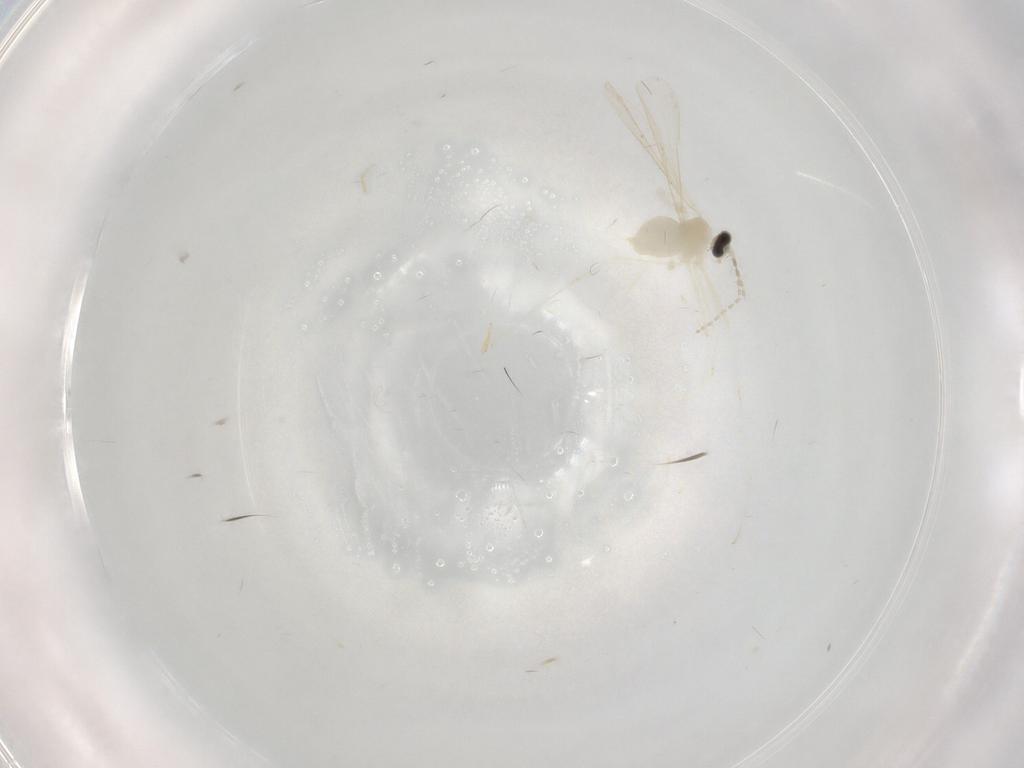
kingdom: Animalia
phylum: Arthropoda
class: Insecta
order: Diptera
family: Cecidomyiidae
